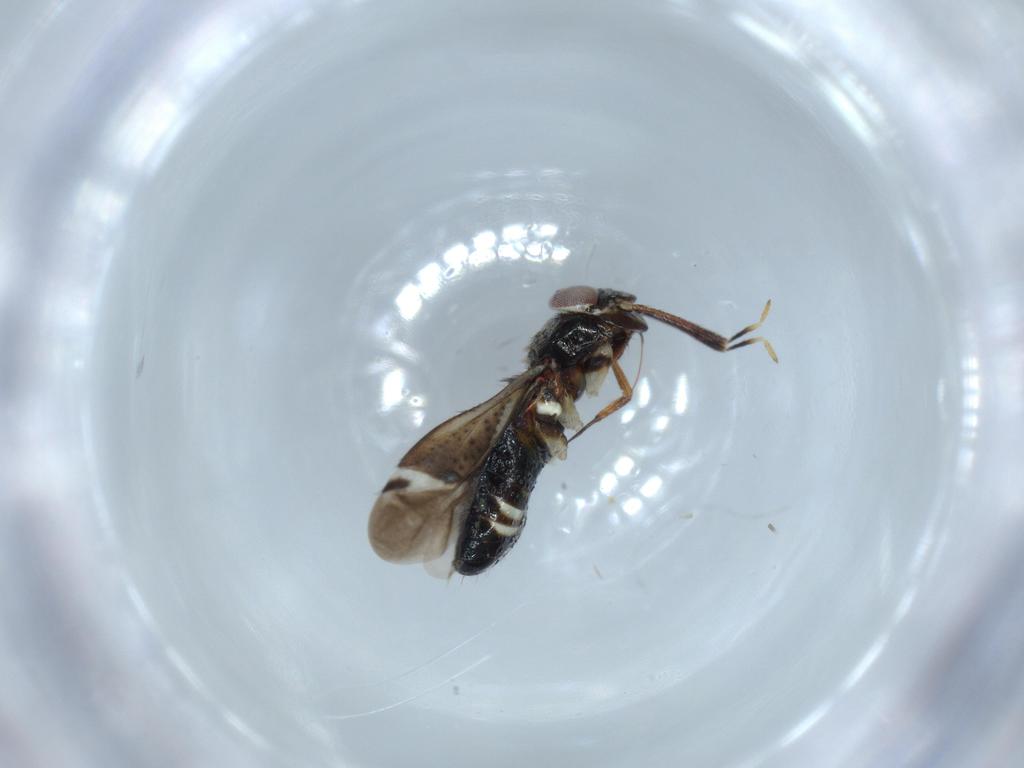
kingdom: Animalia
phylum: Arthropoda
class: Insecta
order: Hemiptera
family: Miridae
